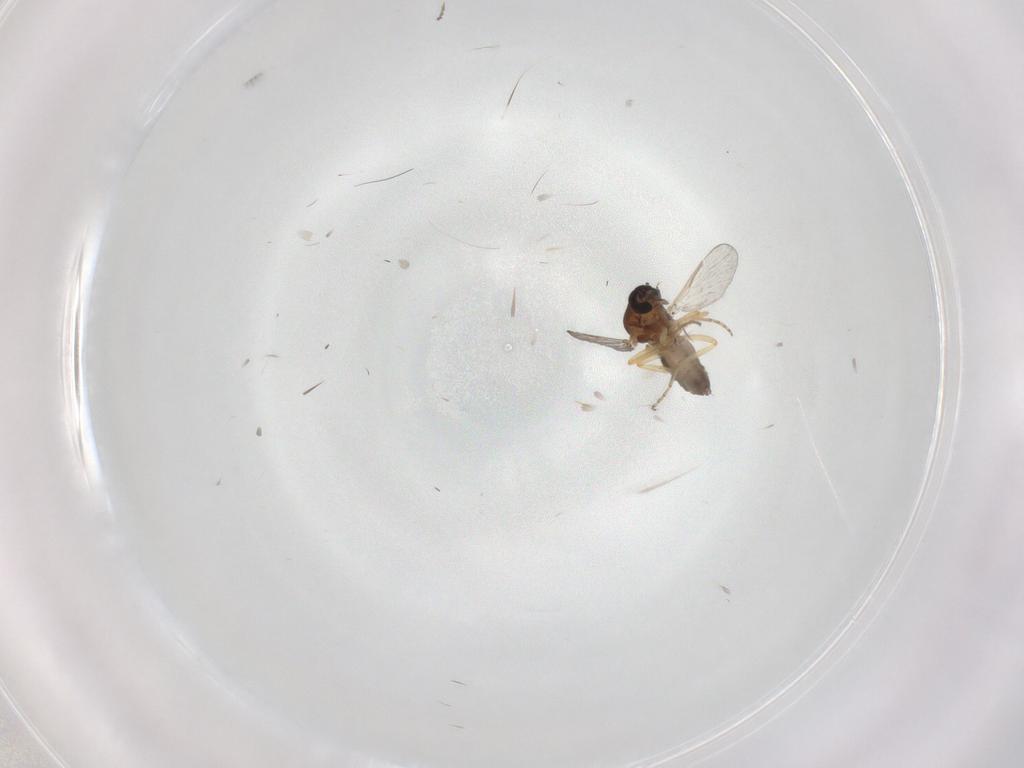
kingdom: Animalia
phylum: Arthropoda
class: Insecta
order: Diptera
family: Ceratopogonidae
